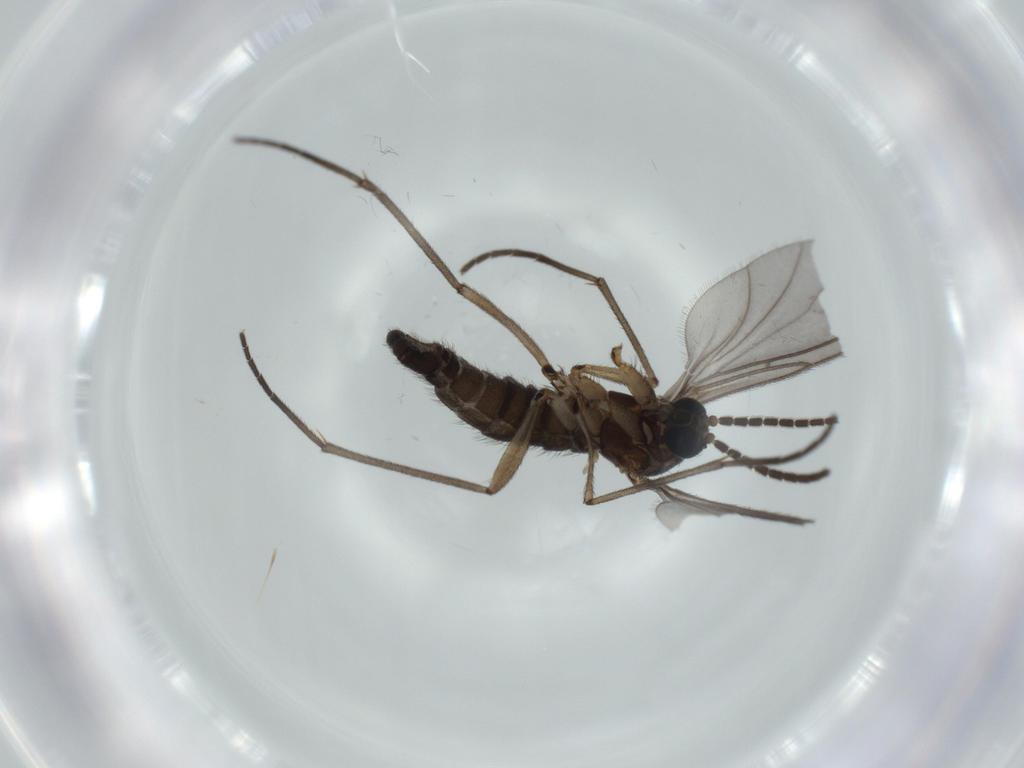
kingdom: Animalia
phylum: Arthropoda
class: Insecta
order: Diptera
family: Sciaridae
